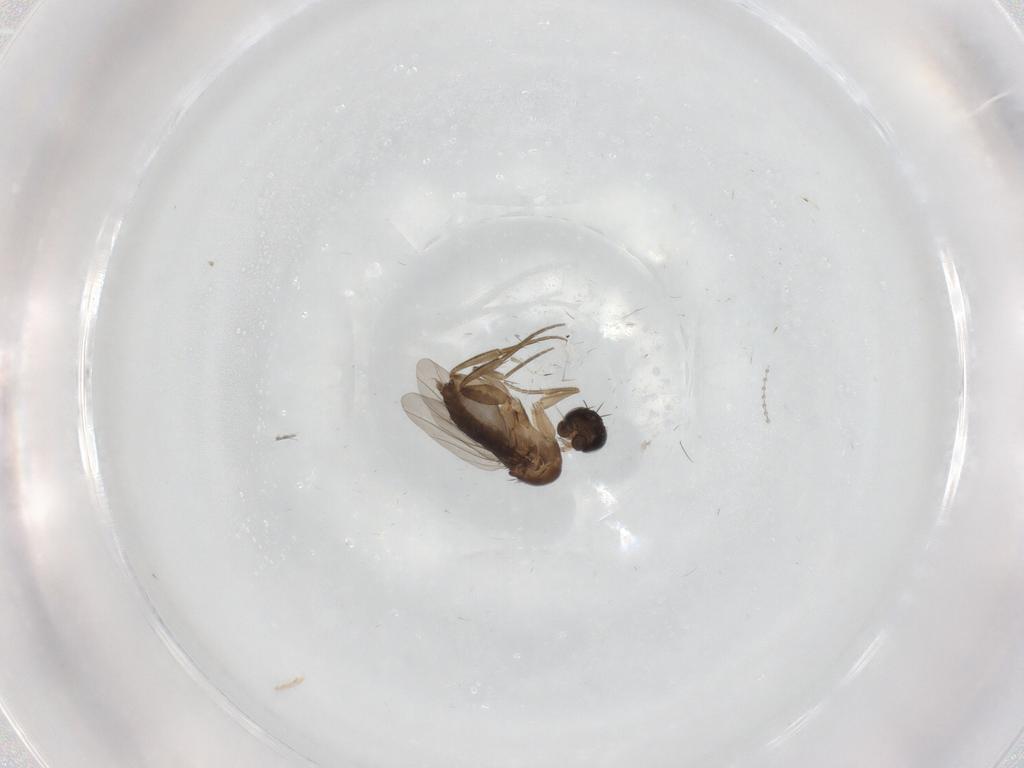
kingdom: Animalia
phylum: Arthropoda
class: Insecta
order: Diptera
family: Phoridae
